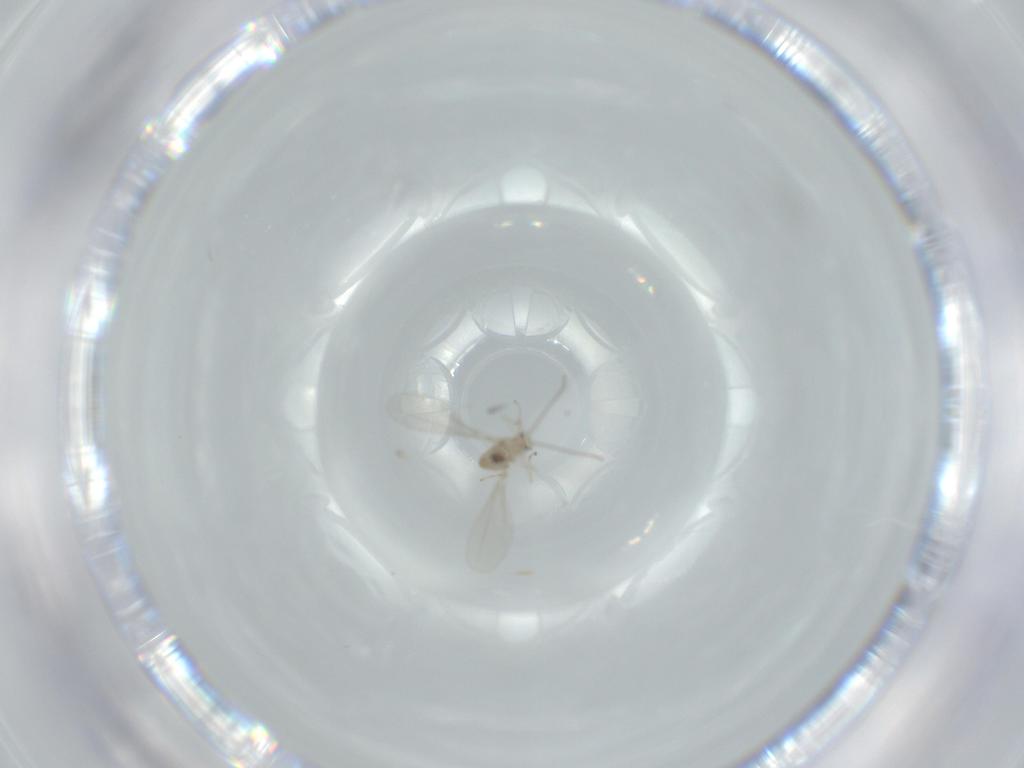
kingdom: Animalia
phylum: Arthropoda
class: Insecta
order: Diptera
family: Dolichopodidae
